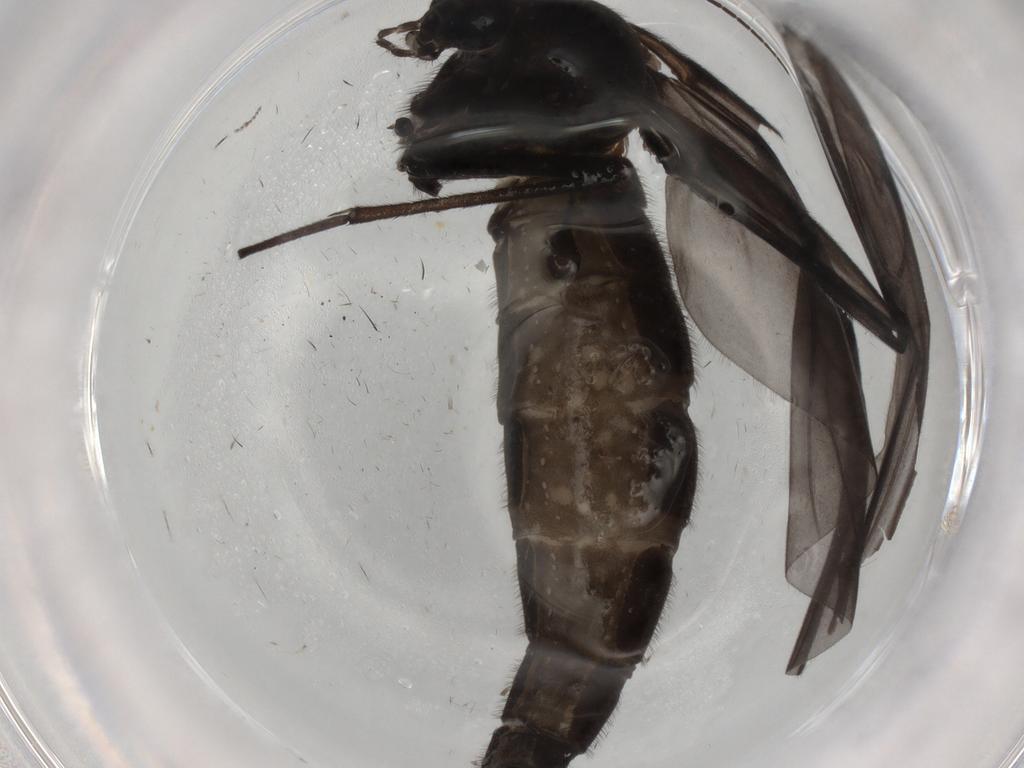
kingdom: Animalia
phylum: Arthropoda
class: Insecta
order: Diptera
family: Cecidomyiidae
